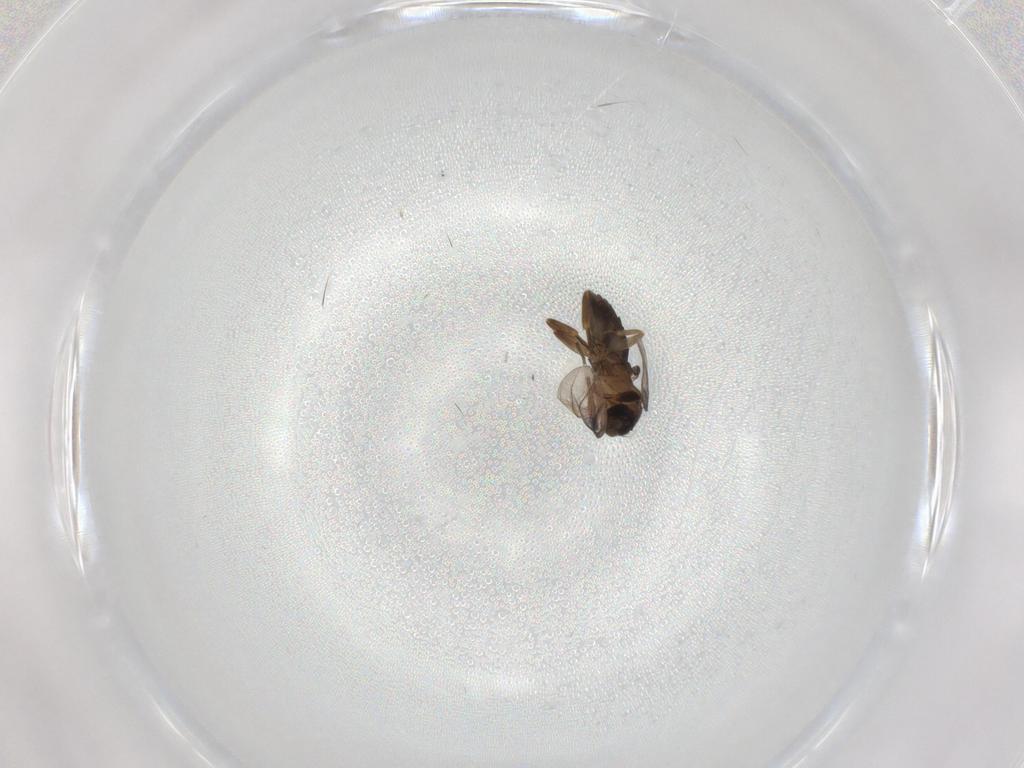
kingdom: Animalia
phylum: Arthropoda
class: Insecta
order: Diptera
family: Phoridae
